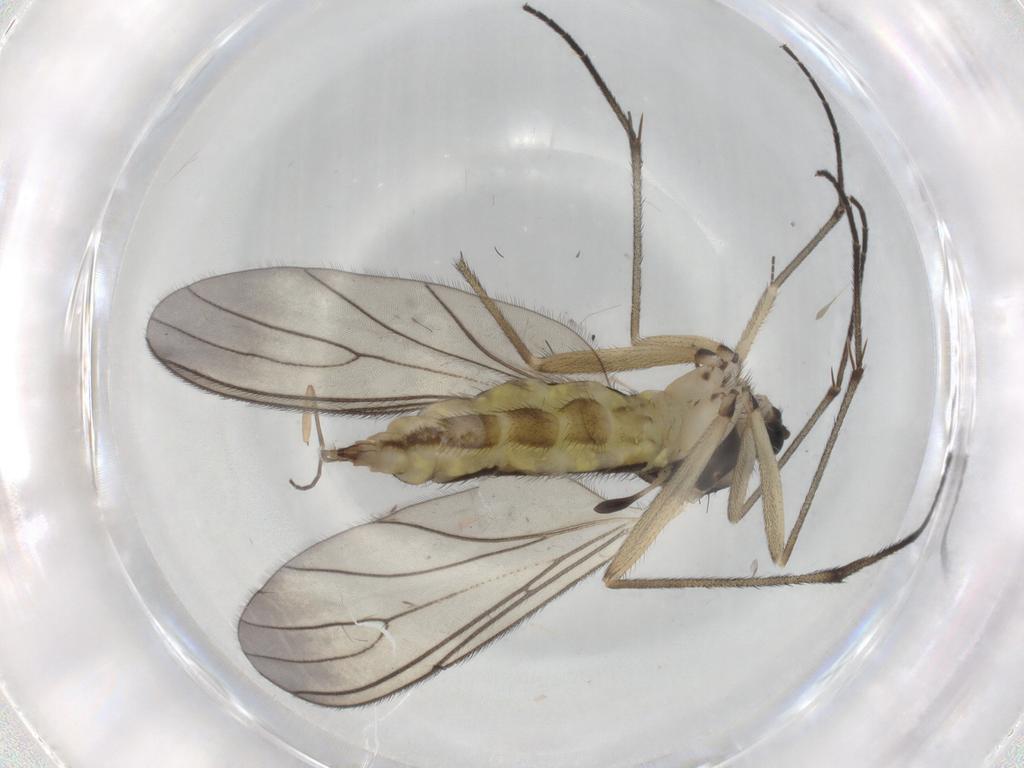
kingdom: Animalia
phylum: Arthropoda
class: Insecta
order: Diptera
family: Sciaridae
